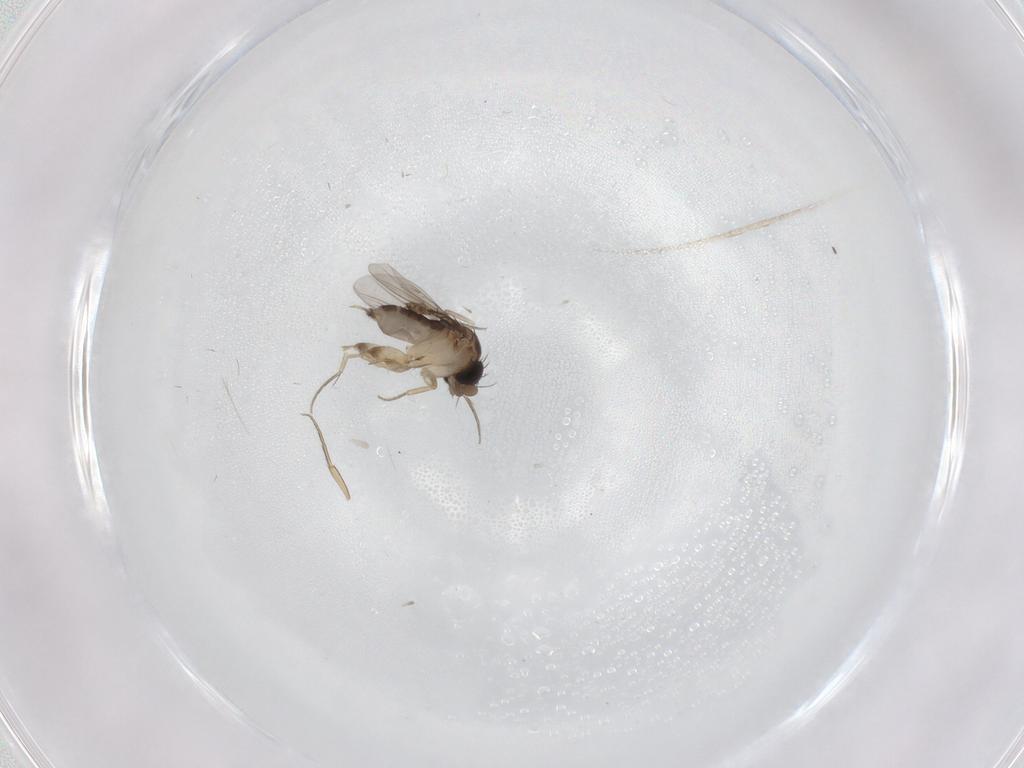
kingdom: Animalia
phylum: Arthropoda
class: Insecta
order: Diptera
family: Phoridae
